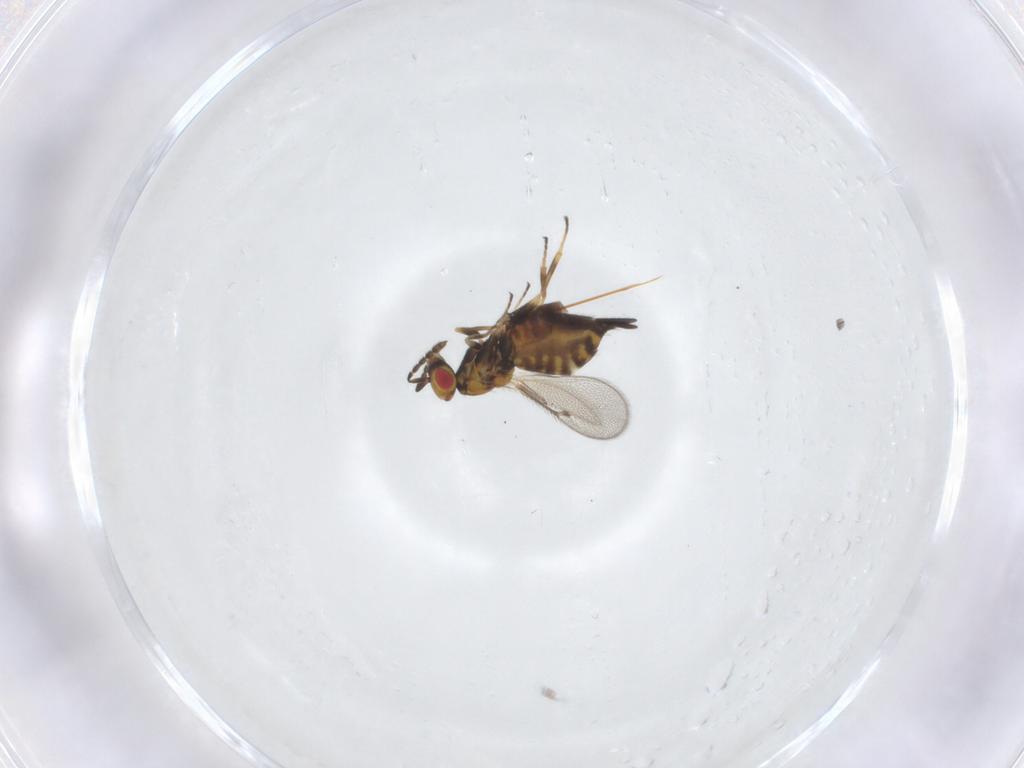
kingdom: Animalia
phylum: Arthropoda
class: Insecta
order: Hymenoptera
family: Eulophidae
